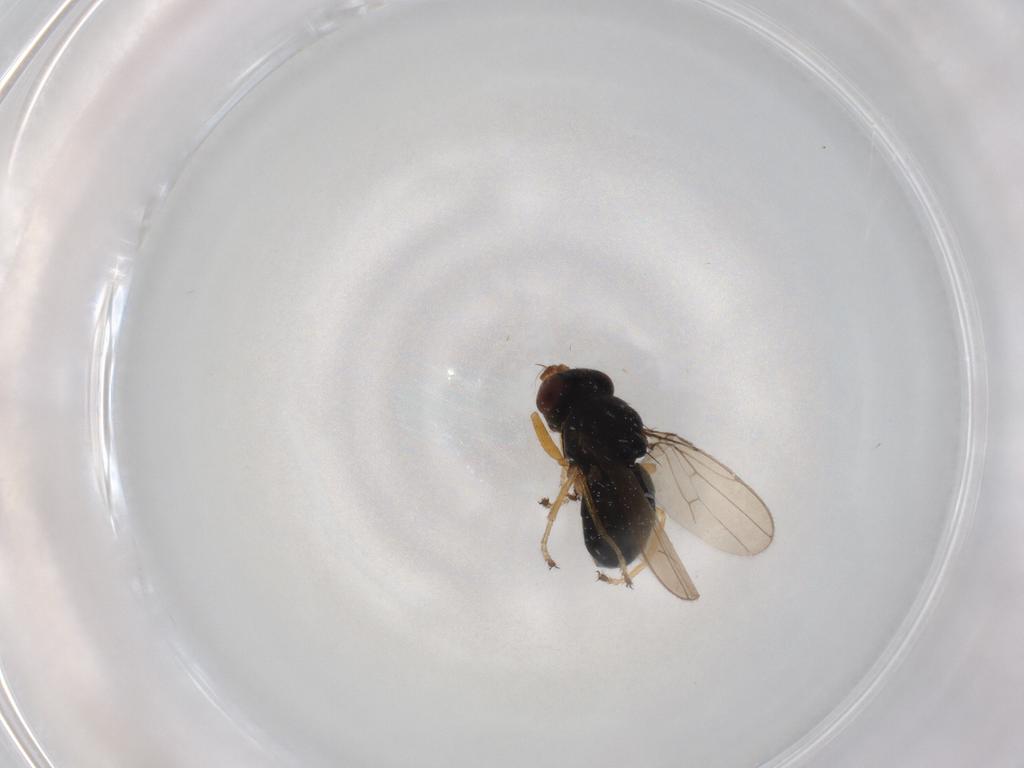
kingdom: Animalia
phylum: Arthropoda
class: Insecta
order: Diptera
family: Ephydridae
